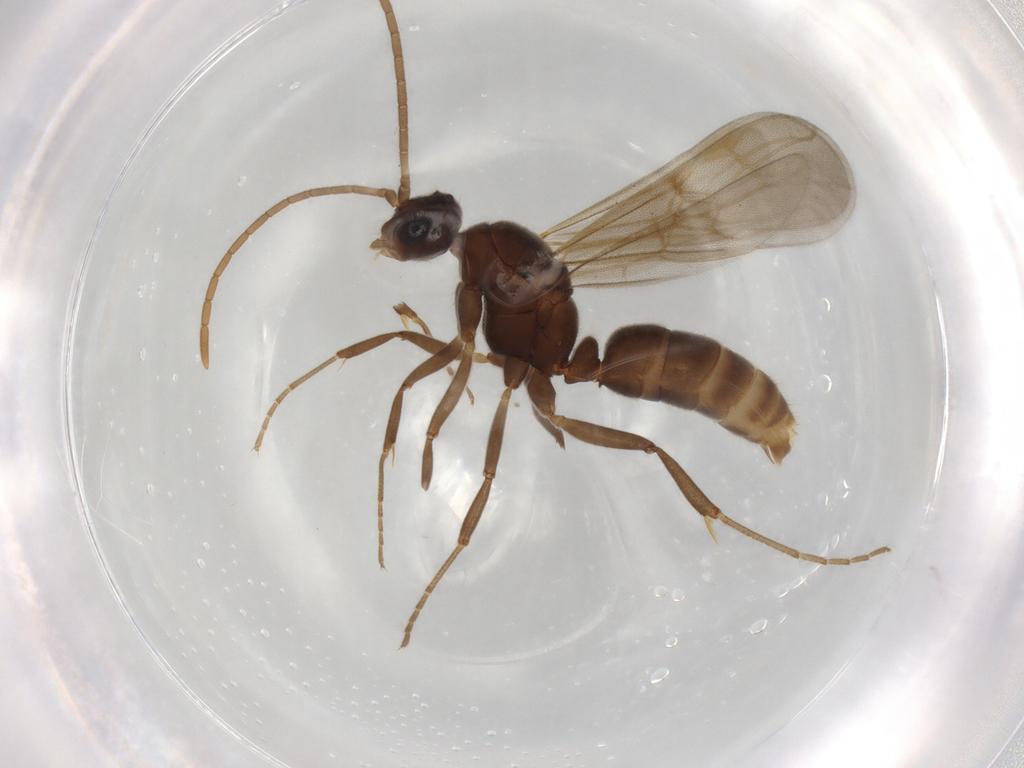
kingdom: Animalia
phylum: Arthropoda
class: Insecta
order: Hymenoptera
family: Formicidae
